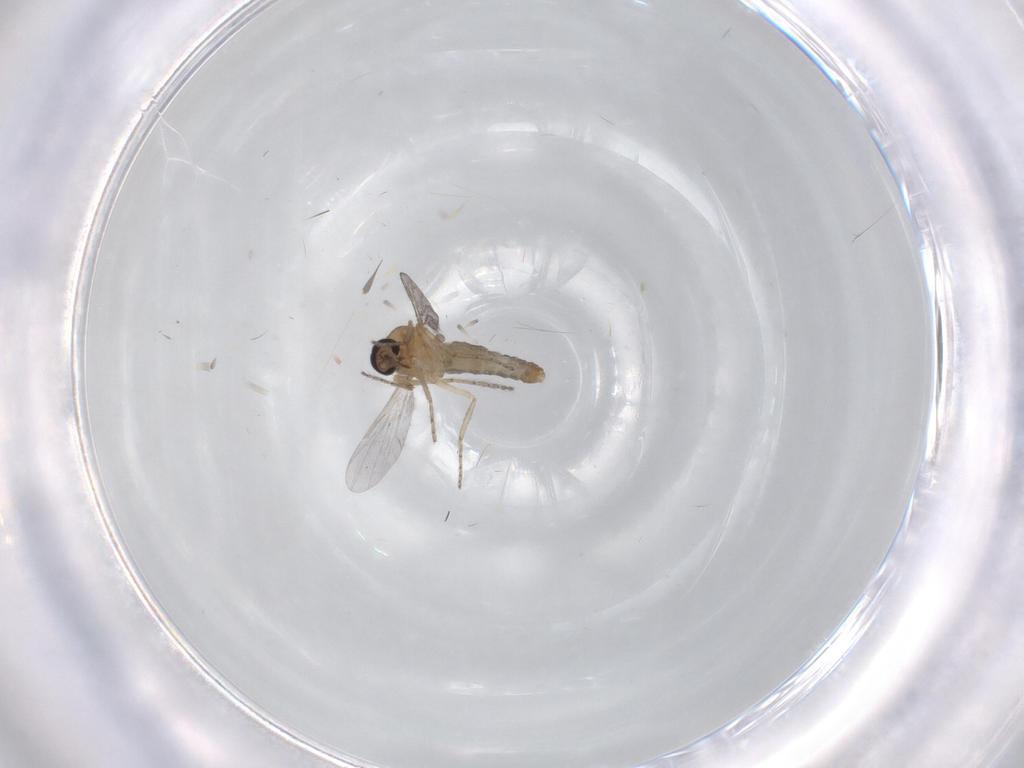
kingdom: Animalia
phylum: Arthropoda
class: Insecta
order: Diptera
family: Ceratopogonidae
